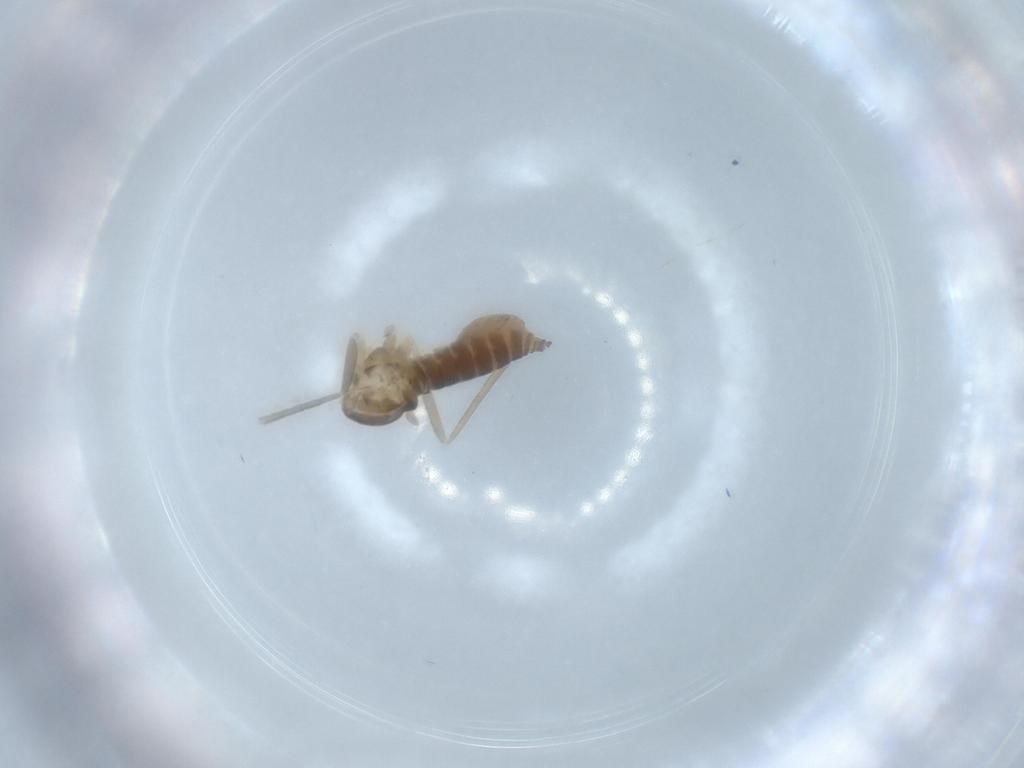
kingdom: Animalia
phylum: Arthropoda
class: Insecta
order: Diptera
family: Cecidomyiidae
